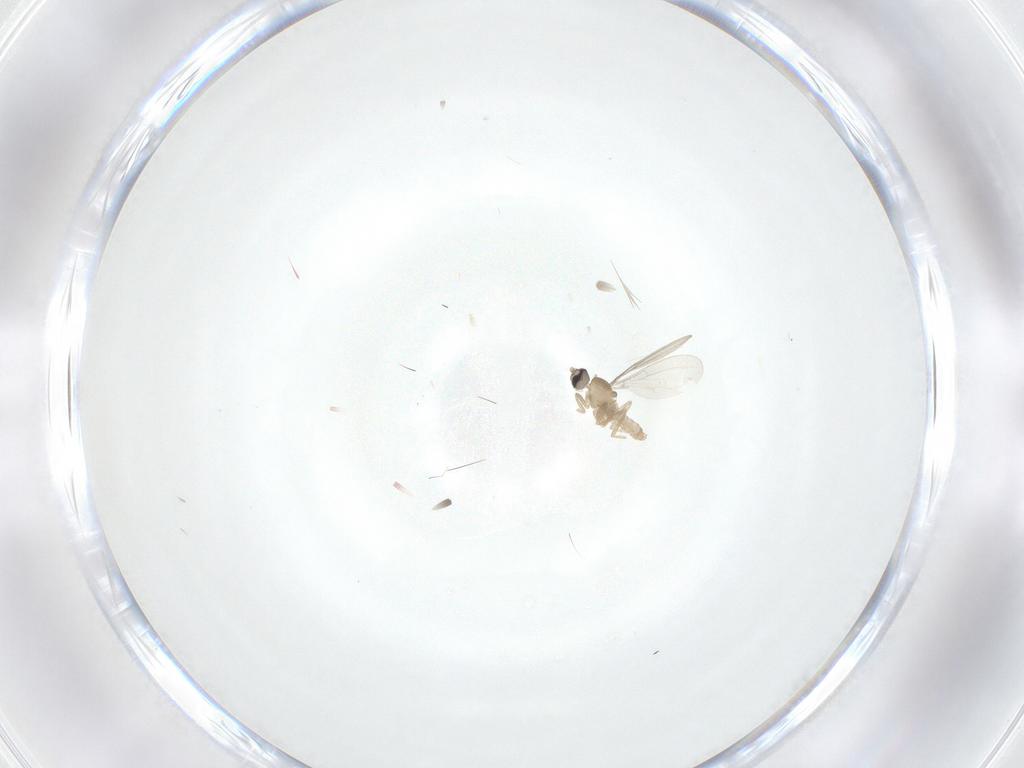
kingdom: Animalia
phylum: Arthropoda
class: Insecta
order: Diptera
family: Cecidomyiidae
